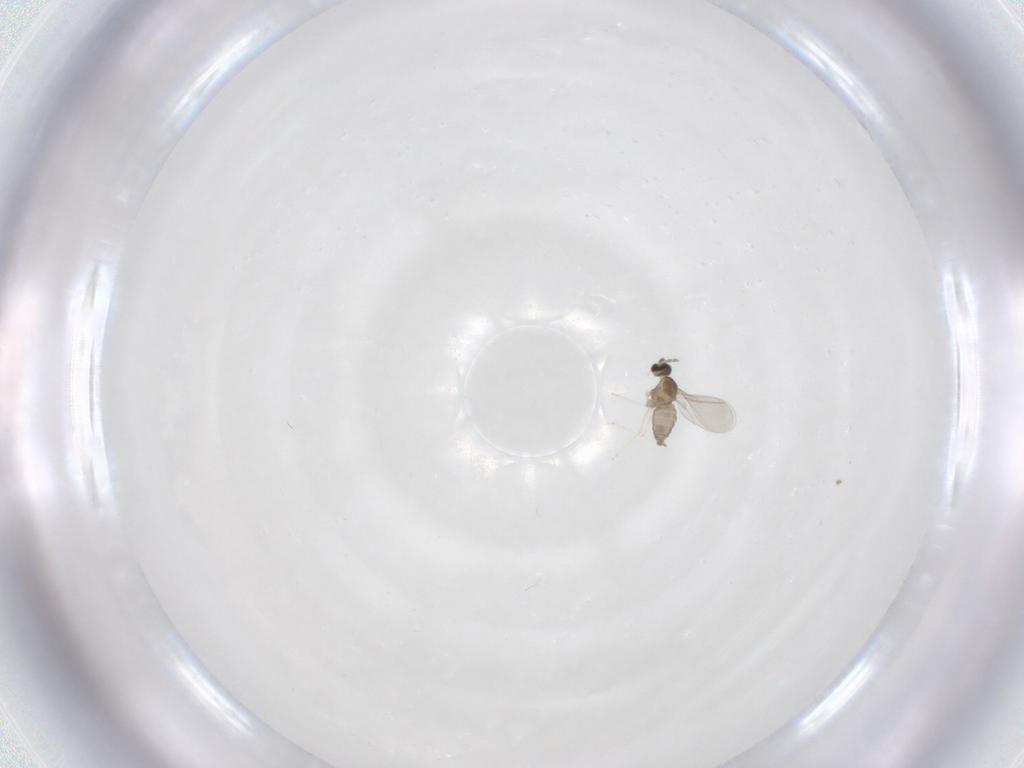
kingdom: Animalia
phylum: Arthropoda
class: Insecta
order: Diptera
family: Cecidomyiidae
